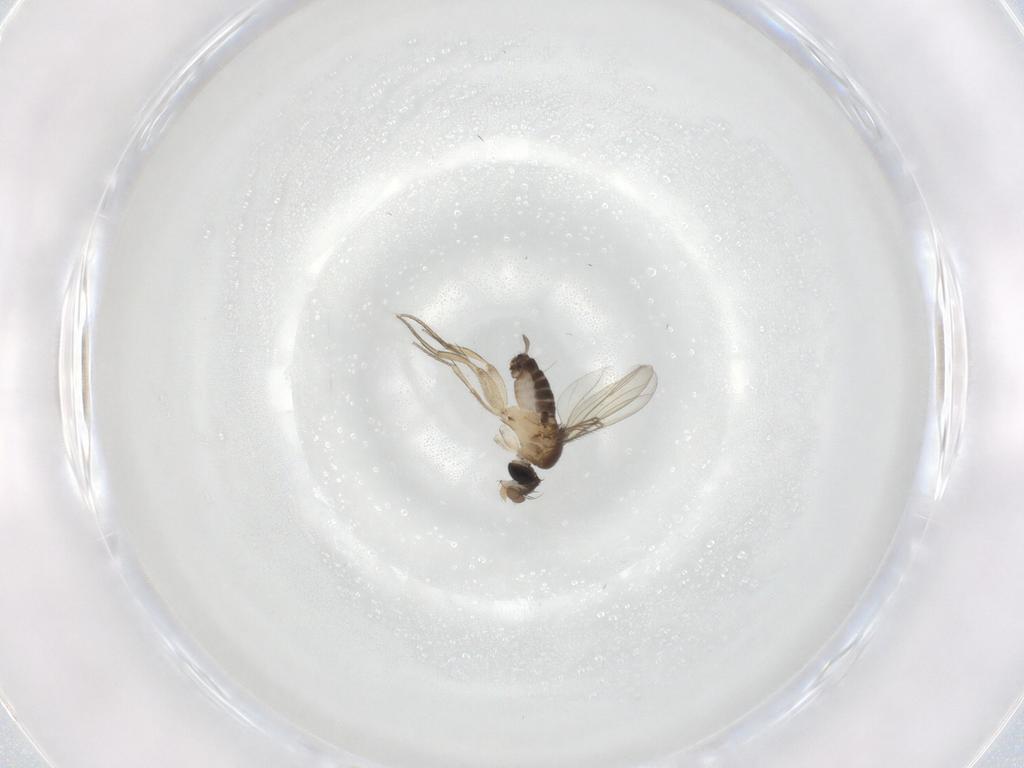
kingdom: Animalia
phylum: Arthropoda
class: Insecta
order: Diptera
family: Phoridae
